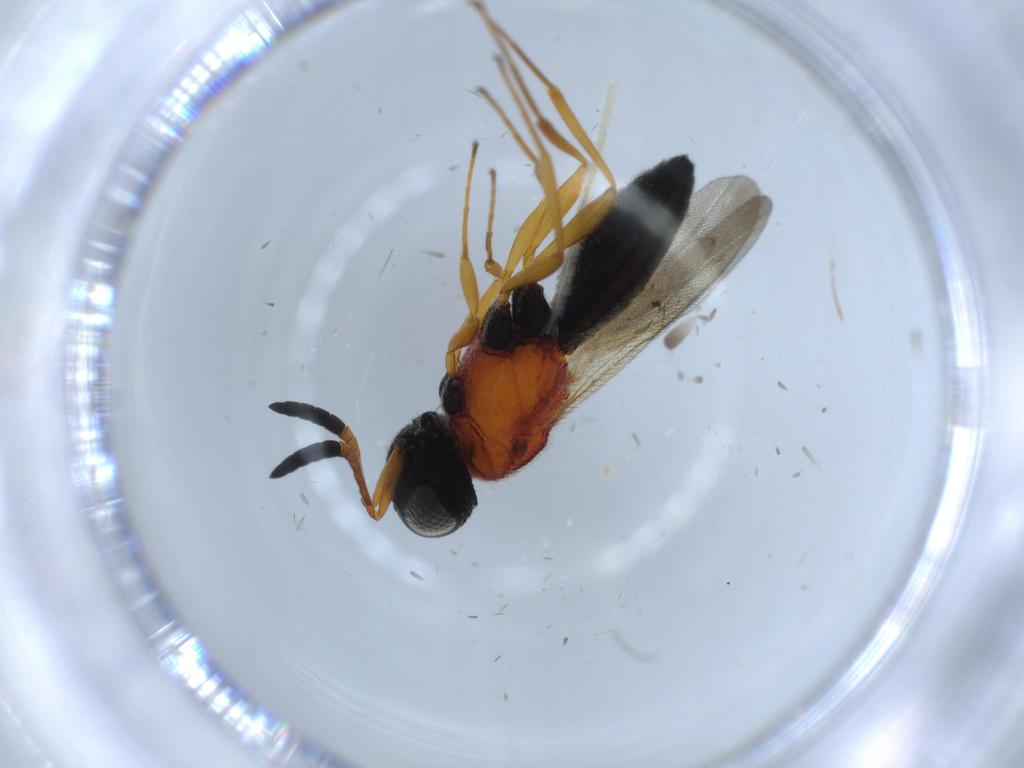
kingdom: Animalia
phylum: Arthropoda
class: Insecta
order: Hymenoptera
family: Scelionidae
